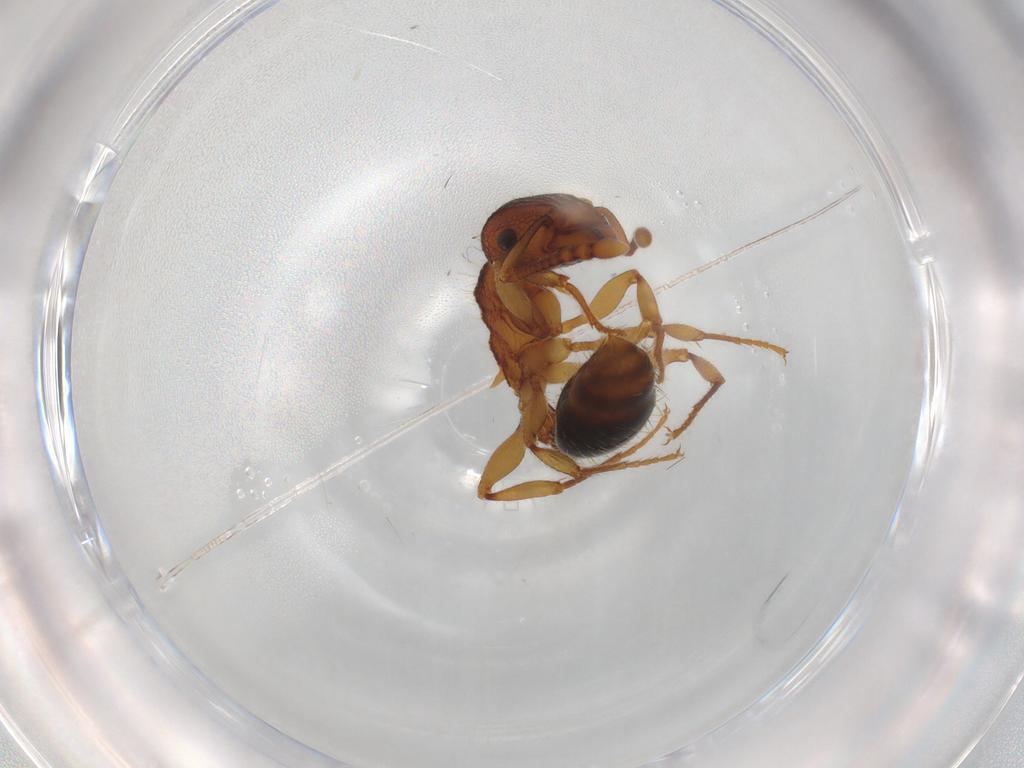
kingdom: Animalia
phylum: Arthropoda
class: Insecta
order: Hymenoptera
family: Formicidae
